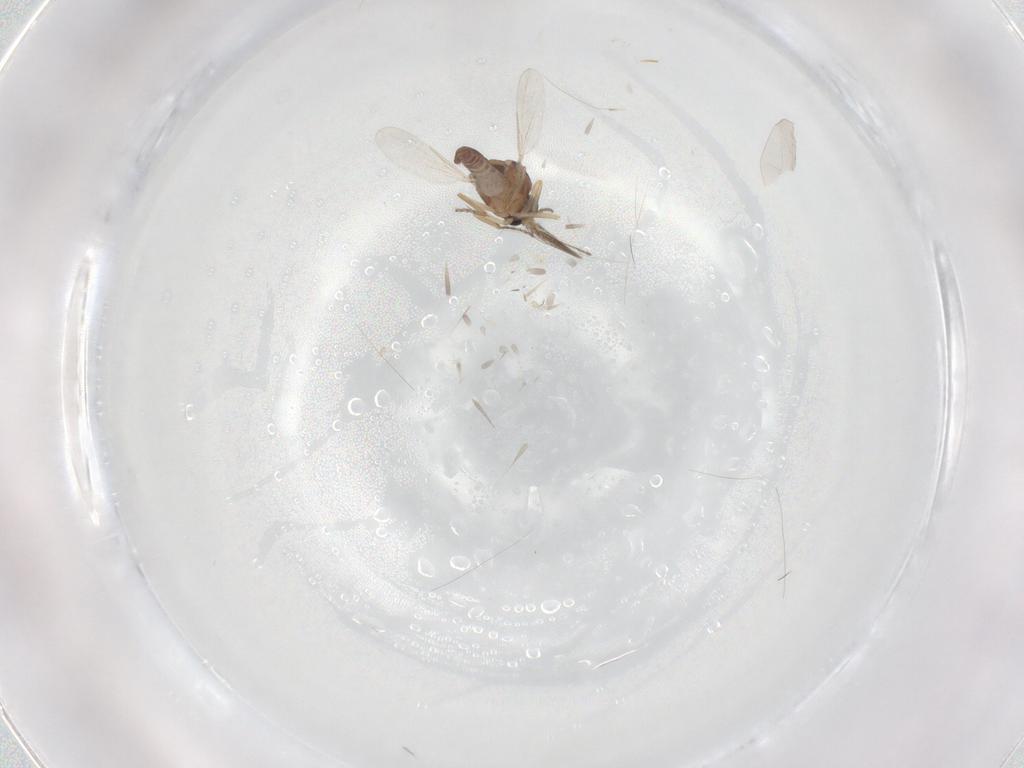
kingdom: Animalia
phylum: Arthropoda
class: Insecta
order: Diptera
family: Ceratopogonidae
